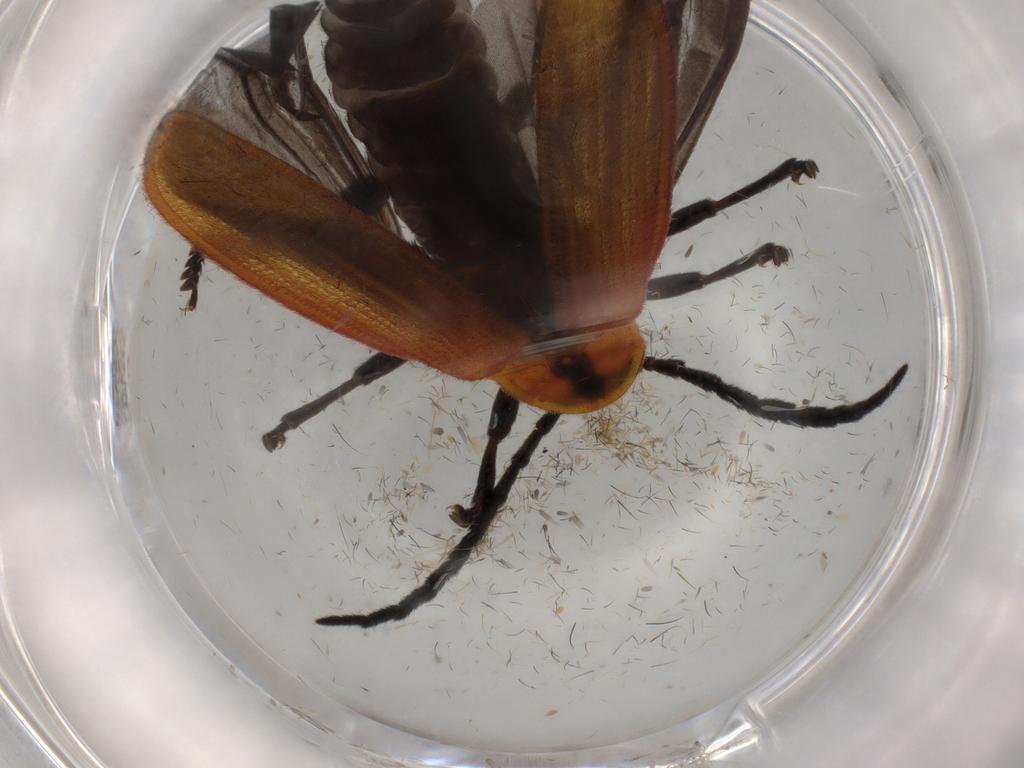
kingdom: Animalia
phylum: Arthropoda
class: Insecta
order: Coleoptera
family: Lycidae
